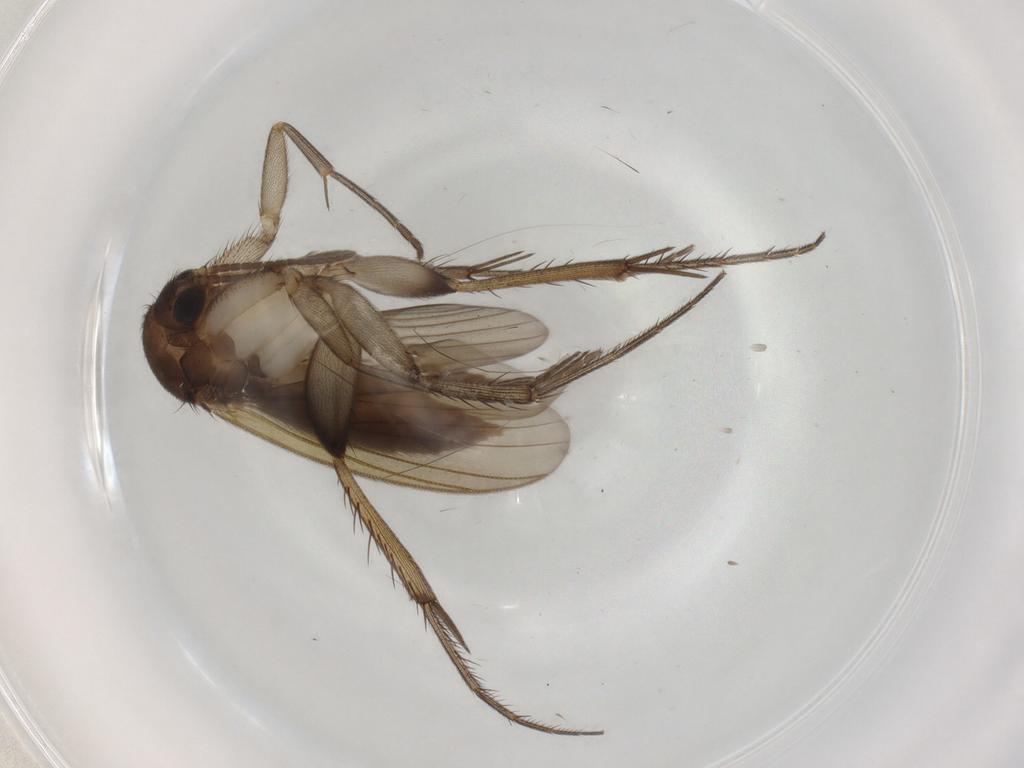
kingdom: Animalia
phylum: Arthropoda
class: Insecta
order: Diptera
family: Mycetophilidae
